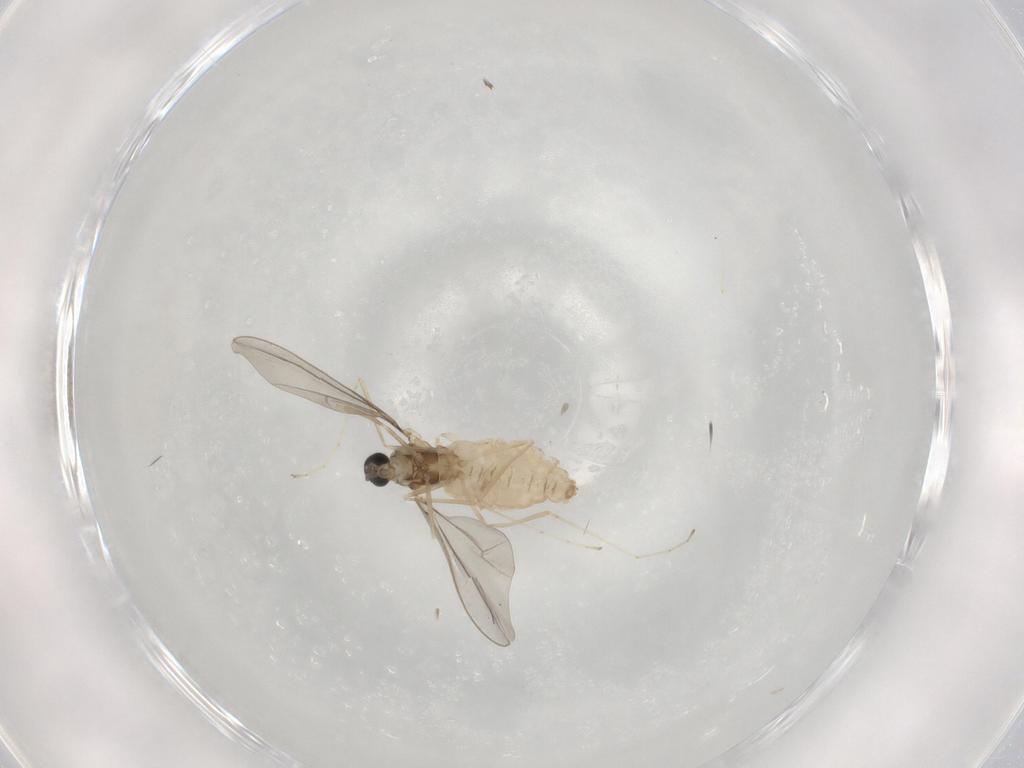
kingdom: Animalia
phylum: Arthropoda
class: Insecta
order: Diptera
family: Cecidomyiidae
